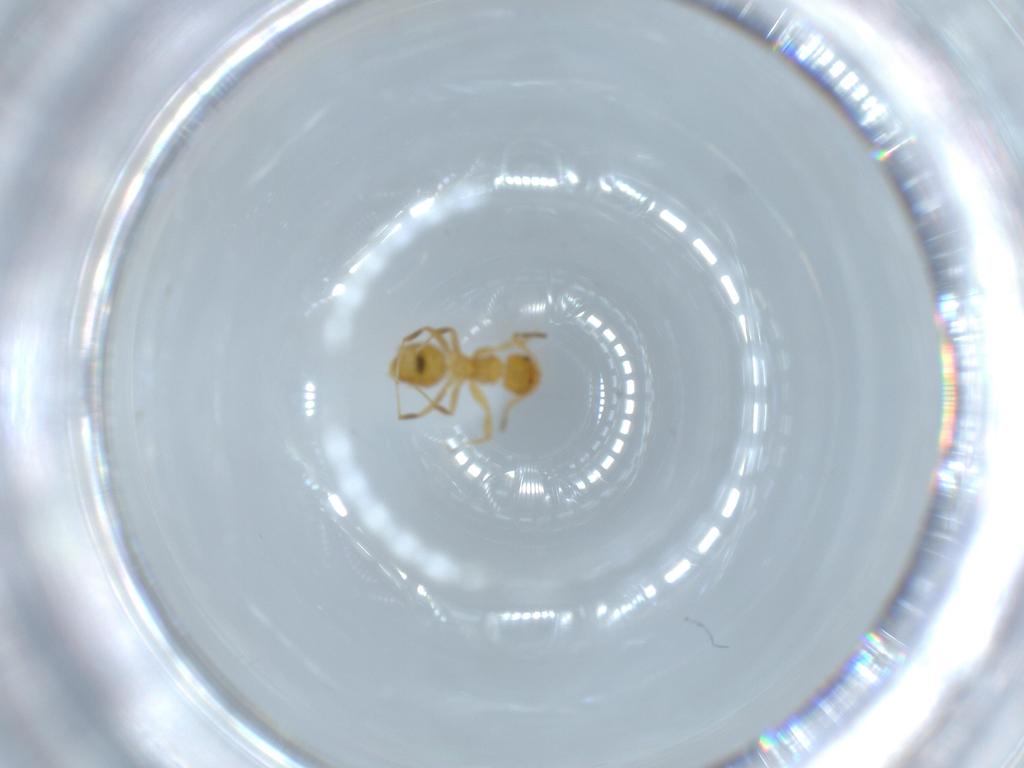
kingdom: Animalia
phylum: Arthropoda
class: Insecta
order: Hymenoptera
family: Formicidae
